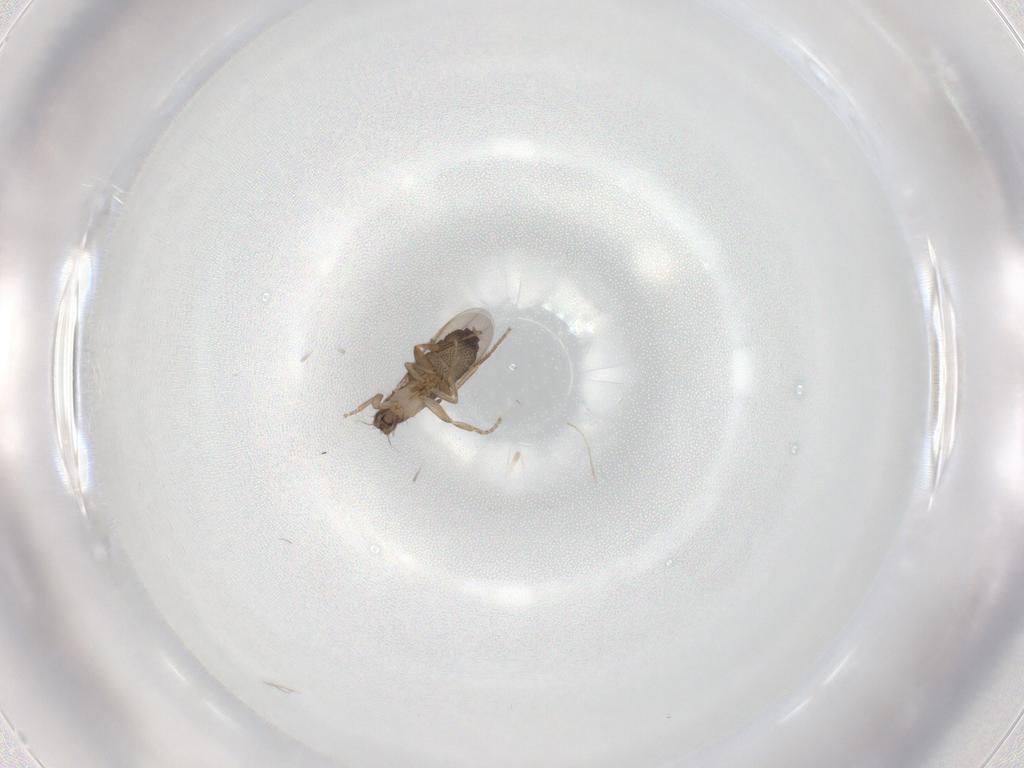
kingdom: Animalia
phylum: Arthropoda
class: Insecta
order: Diptera
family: Phoridae
